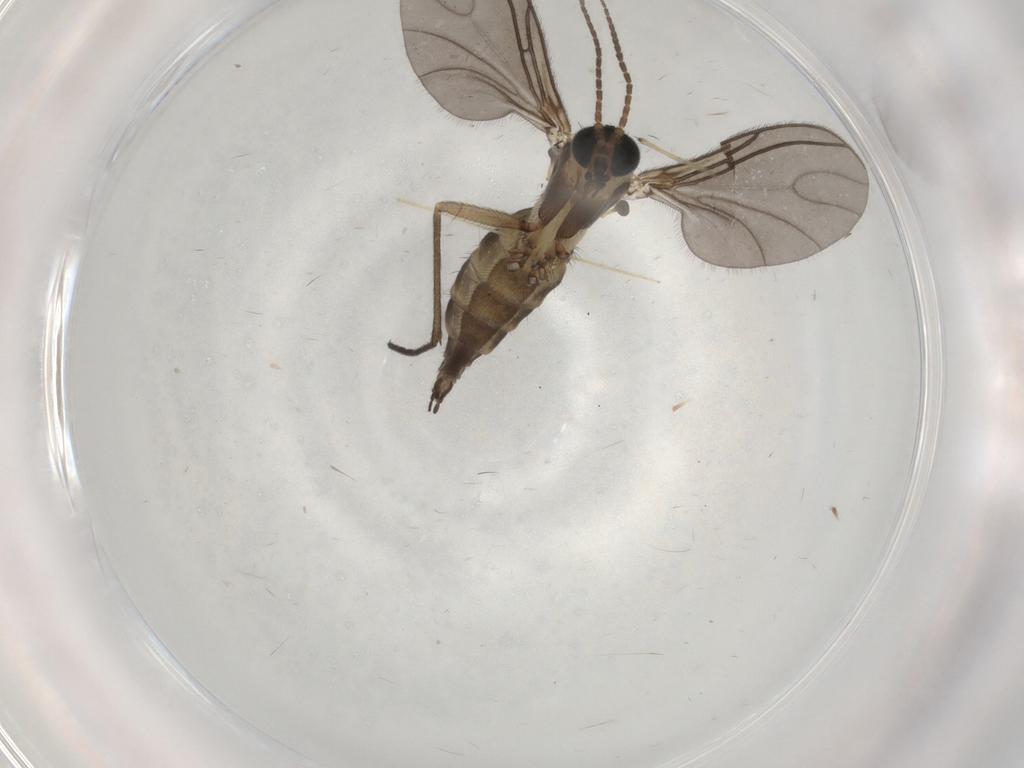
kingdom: Animalia
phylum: Arthropoda
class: Insecta
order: Diptera
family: Sciaridae
